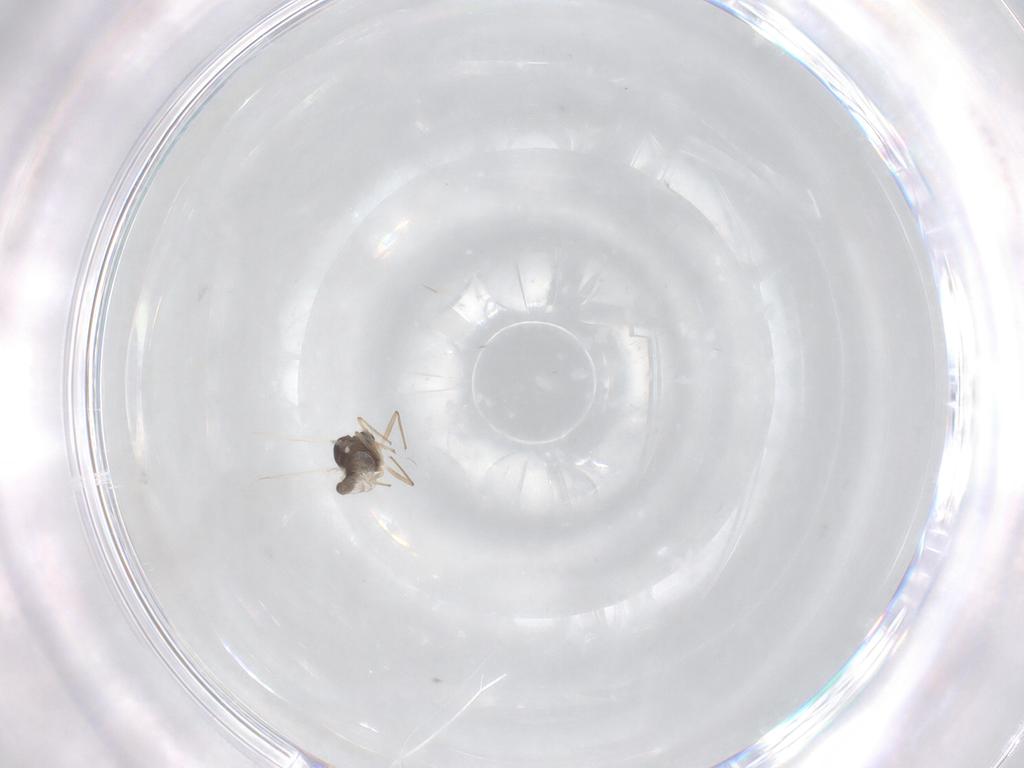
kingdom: Animalia
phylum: Arthropoda
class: Insecta
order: Diptera
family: Chironomidae
